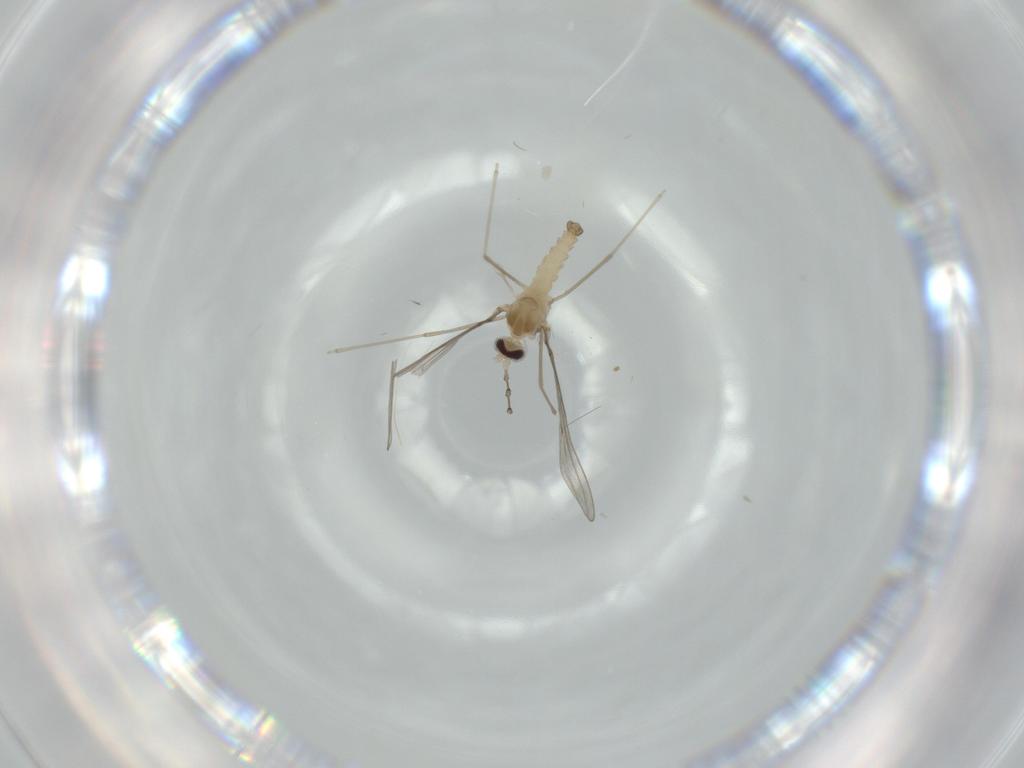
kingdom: Animalia
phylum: Arthropoda
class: Insecta
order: Diptera
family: Cecidomyiidae
